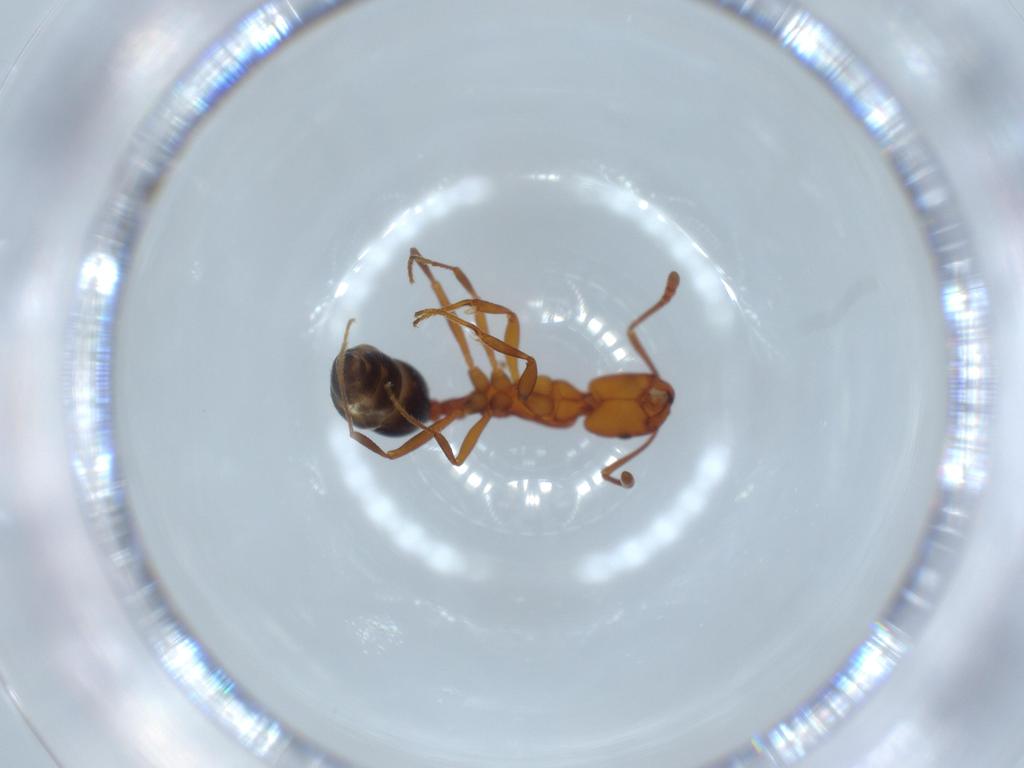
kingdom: Animalia
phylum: Arthropoda
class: Insecta
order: Hymenoptera
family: Formicidae
